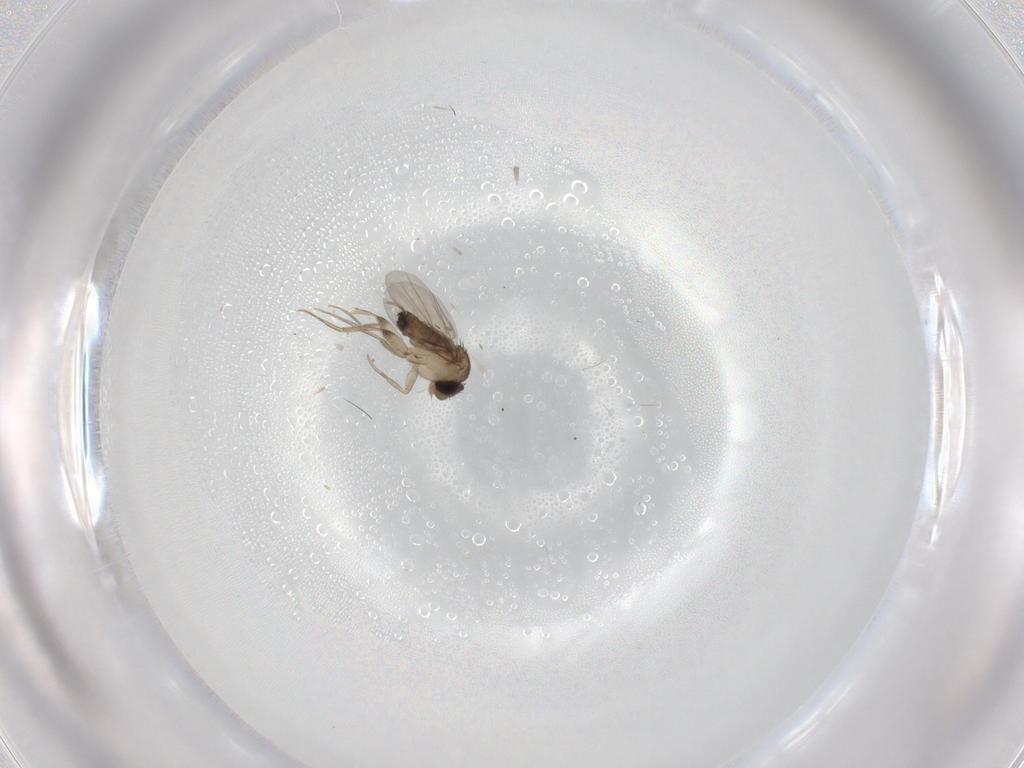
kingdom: Animalia
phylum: Arthropoda
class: Insecta
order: Diptera
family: Phoridae
